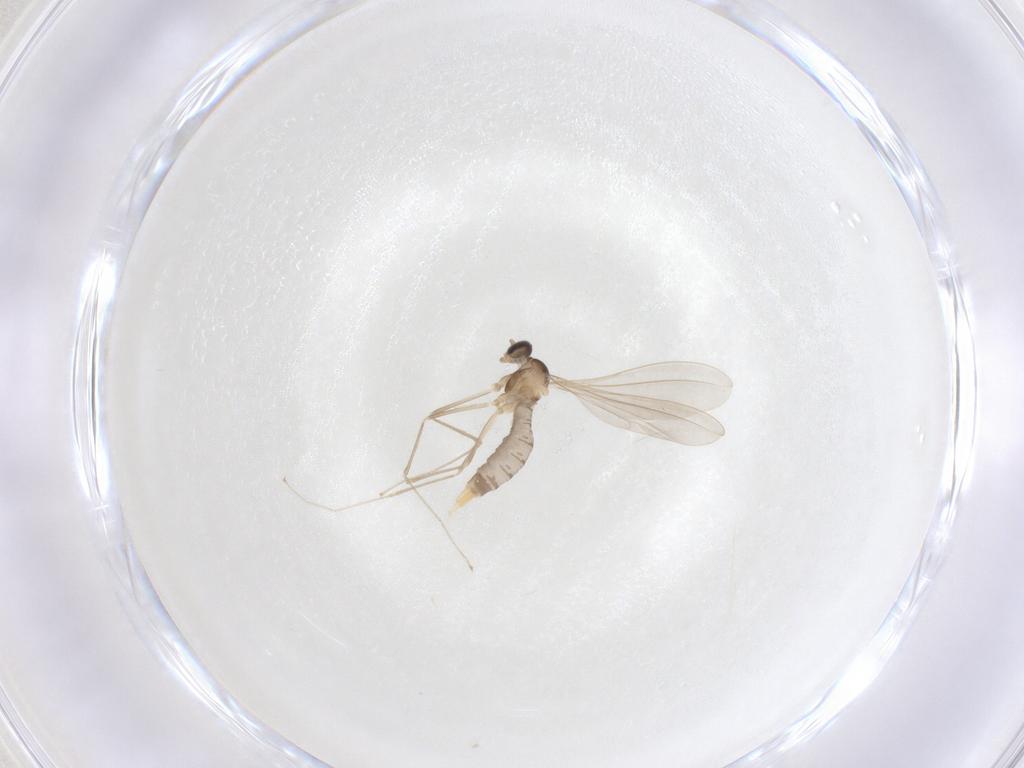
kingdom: Animalia
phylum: Arthropoda
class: Insecta
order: Diptera
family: Cecidomyiidae
